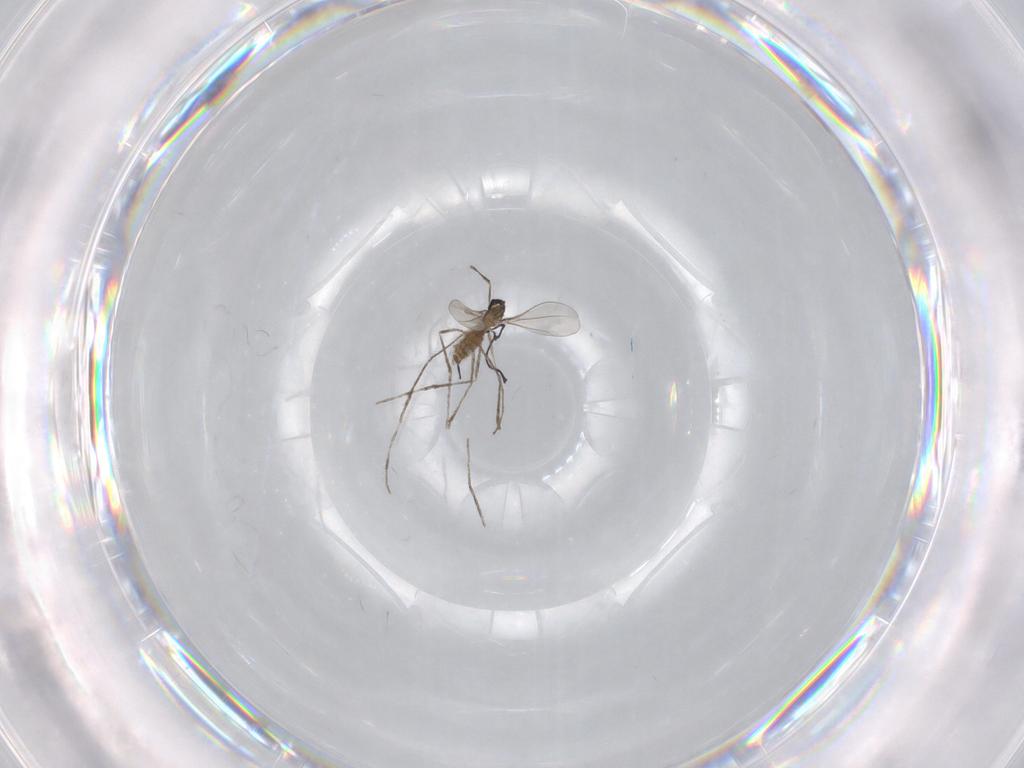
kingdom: Animalia
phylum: Arthropoda
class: Insecta
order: Diptera
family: Cecidomyiidae
